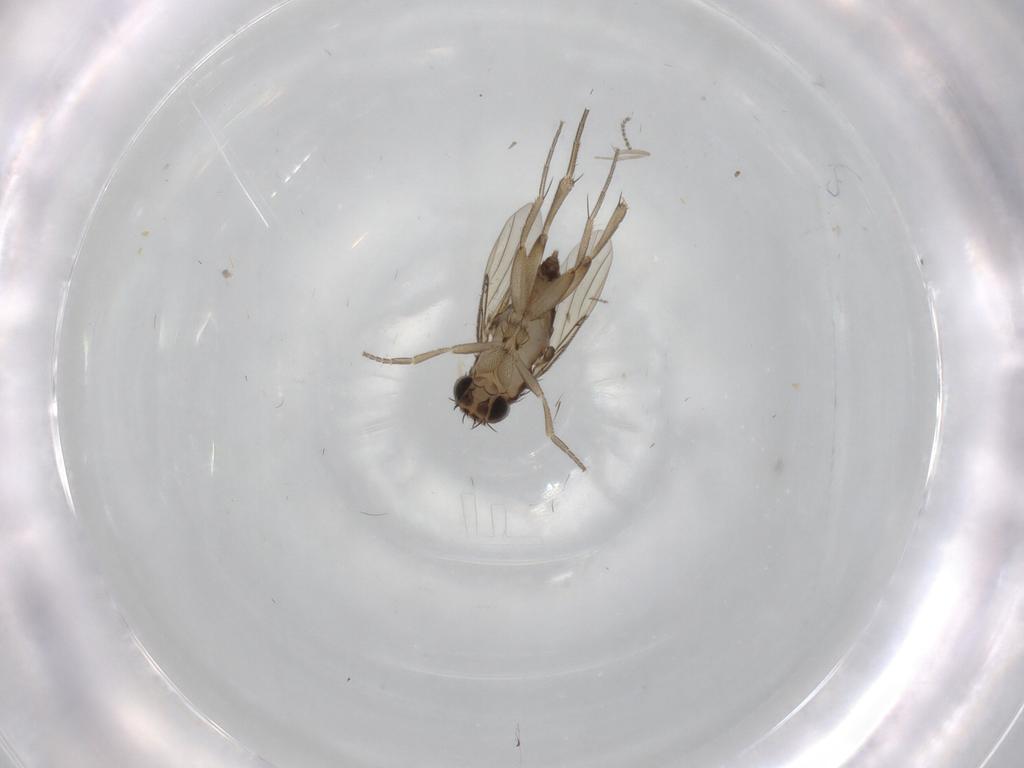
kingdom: Animalia
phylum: Arthropoda
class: Insecta
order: Diptera
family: Cecidomyiidae
